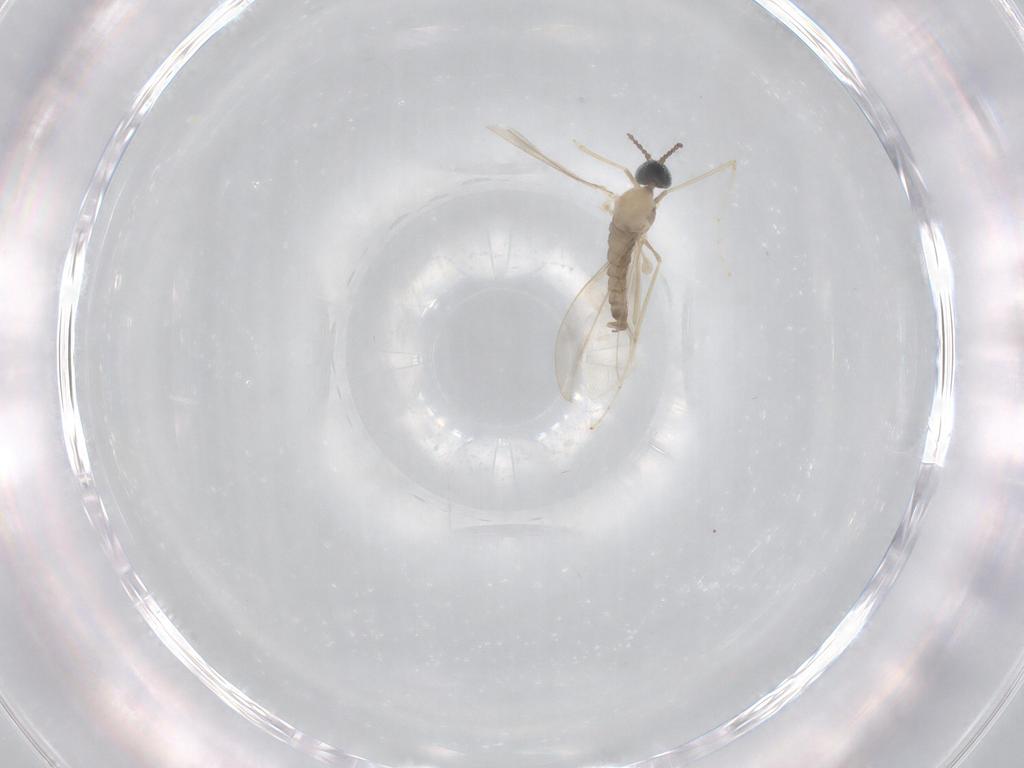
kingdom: Animalia
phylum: Arthropoda
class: Insecta
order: Diptera
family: Cecidomyiidae
